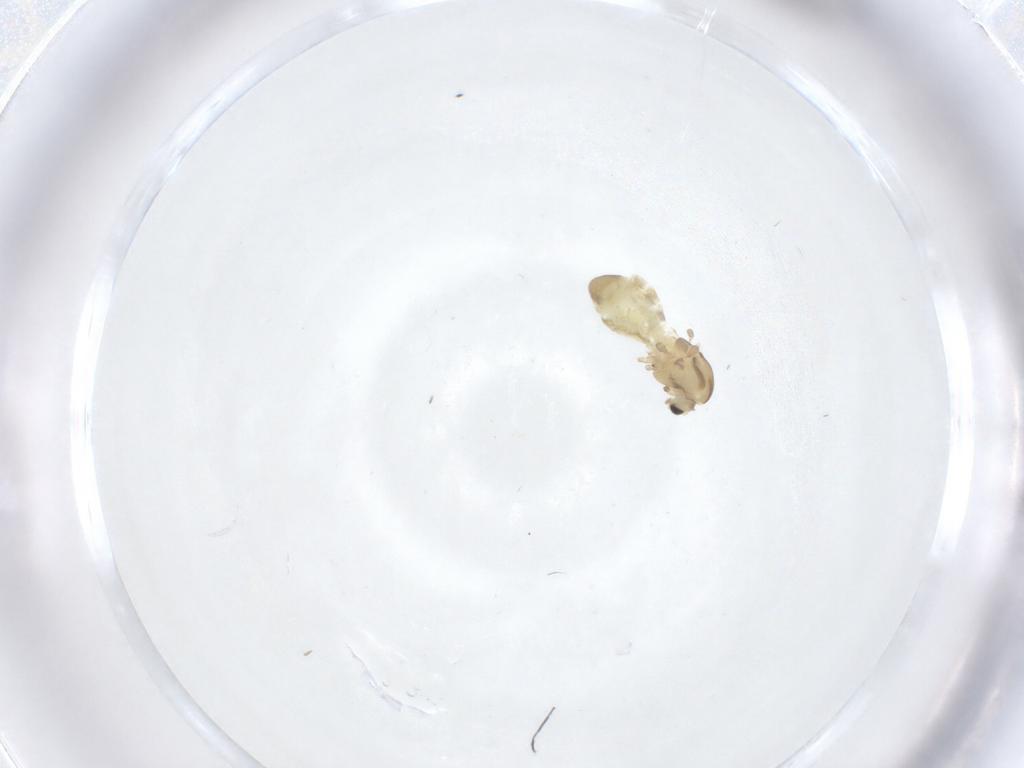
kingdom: Animalia
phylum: Arthropoda
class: Insecta
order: Diptera
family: Chironomidae
